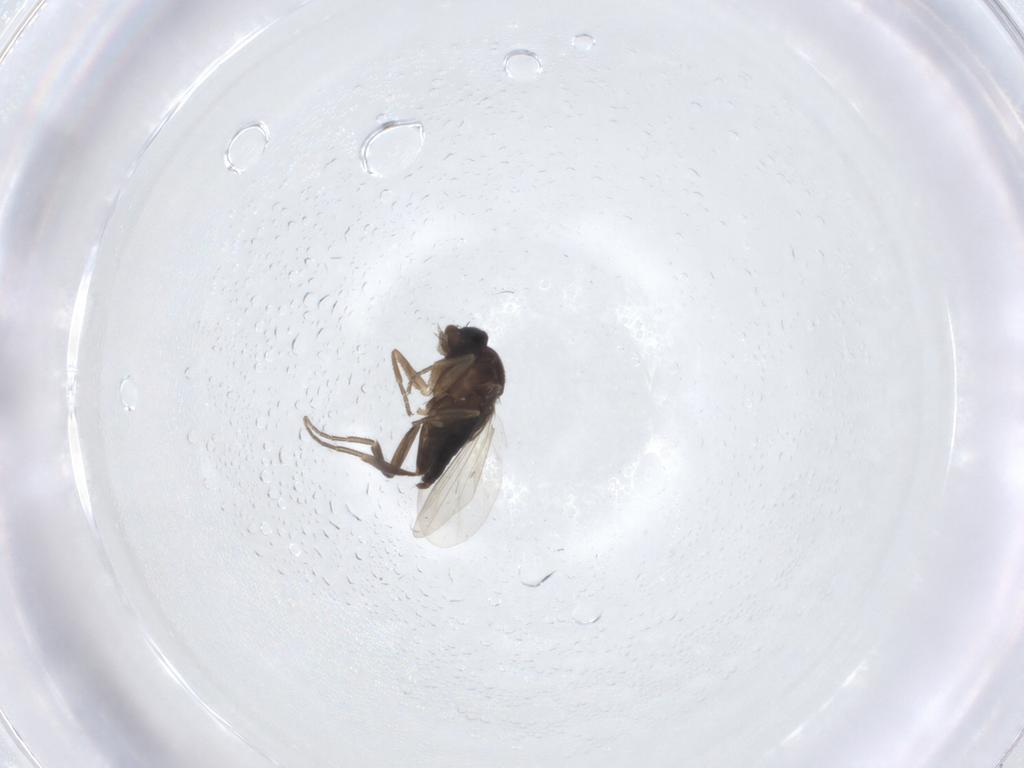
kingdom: Animalia
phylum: Arthropoda
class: Insecta
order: Diptera
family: Phoridae
